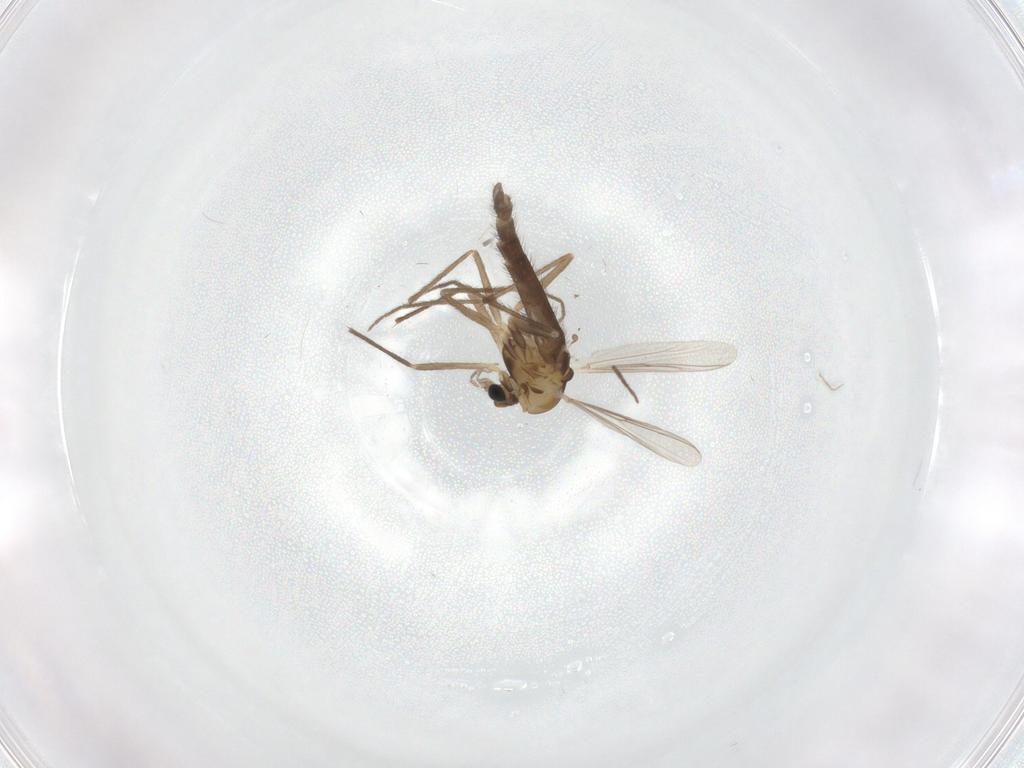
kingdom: Animalia
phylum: Arthropoda
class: Insecta
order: Diptera
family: Chironomidae
